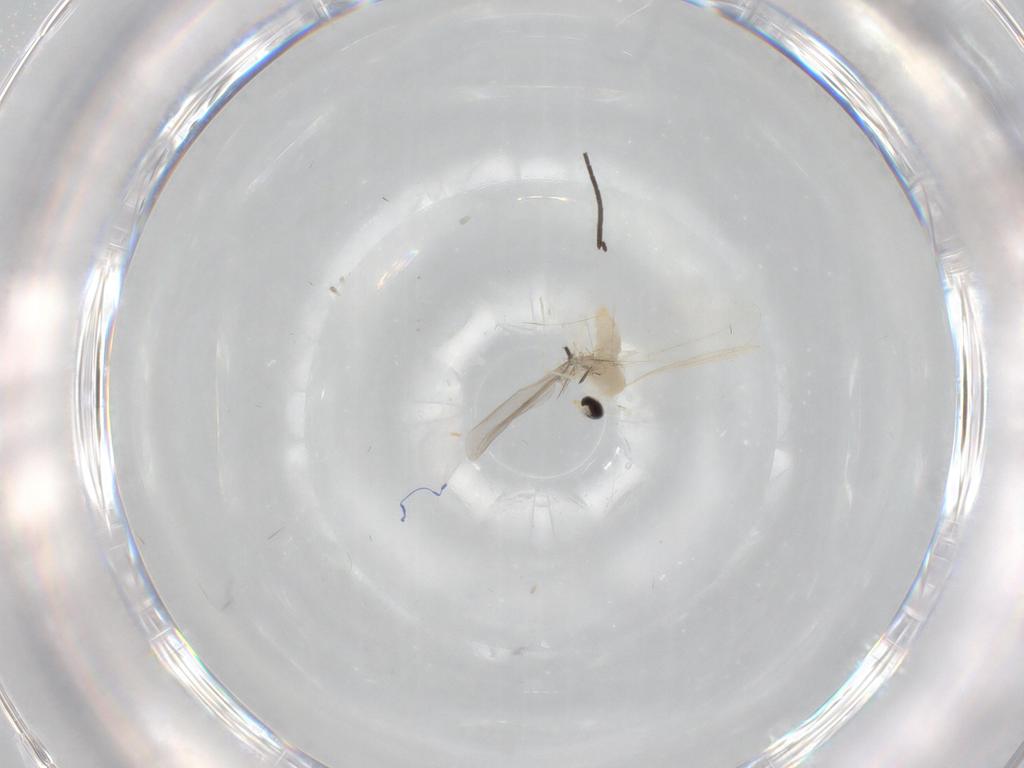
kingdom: Animalia
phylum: Arthropoda
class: Insecta
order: Diptera
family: Cecidomyiidae
